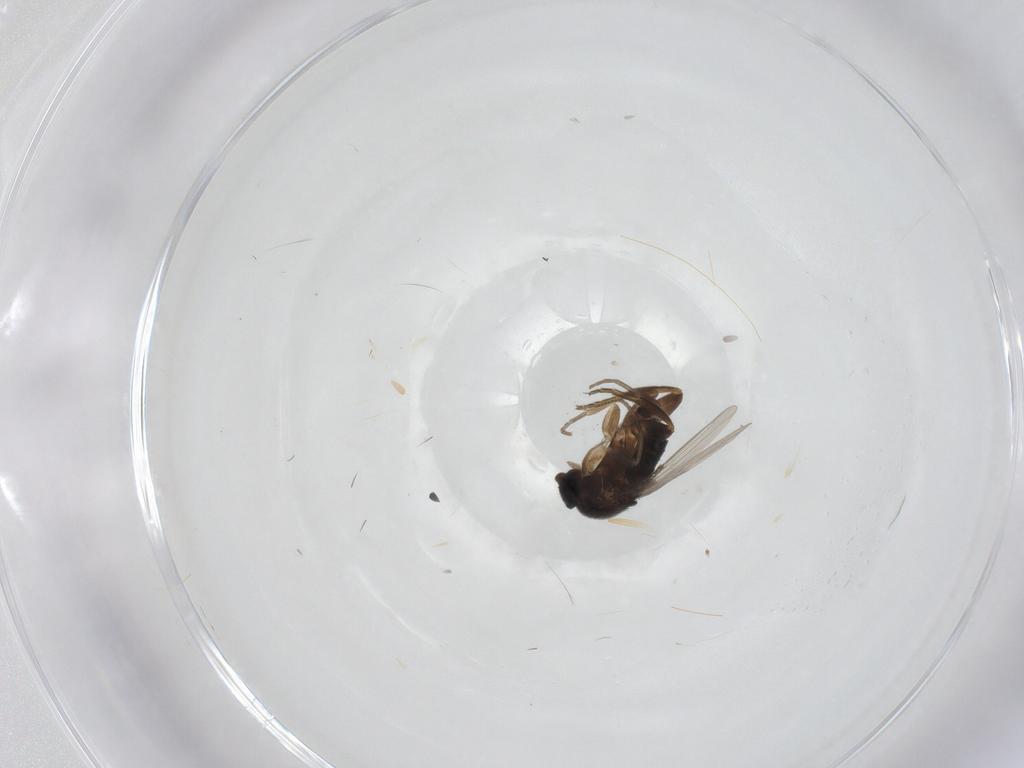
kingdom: Animalia
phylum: Arthropoda
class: Insecta
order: Diptera
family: Phoridae
